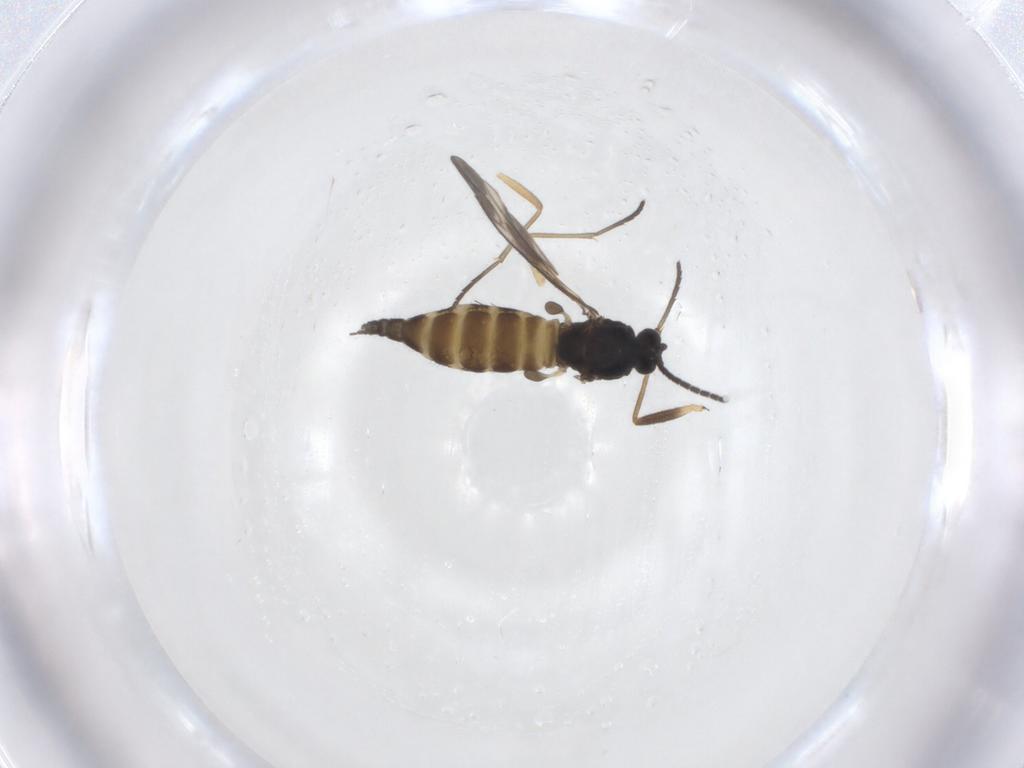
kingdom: Animalia
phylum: Arthropoda
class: Insecta
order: Diptera
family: Sciaridae
